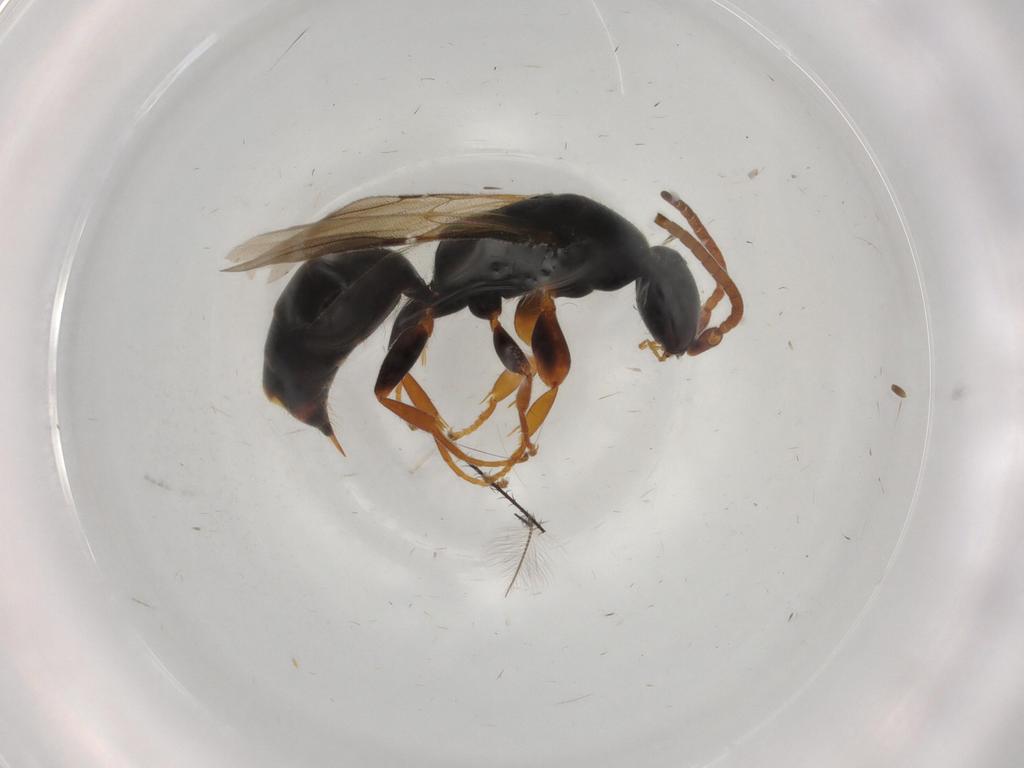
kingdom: Animalia
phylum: Arthropoda
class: Insecta
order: Hymenoptera
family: Bethylidae
